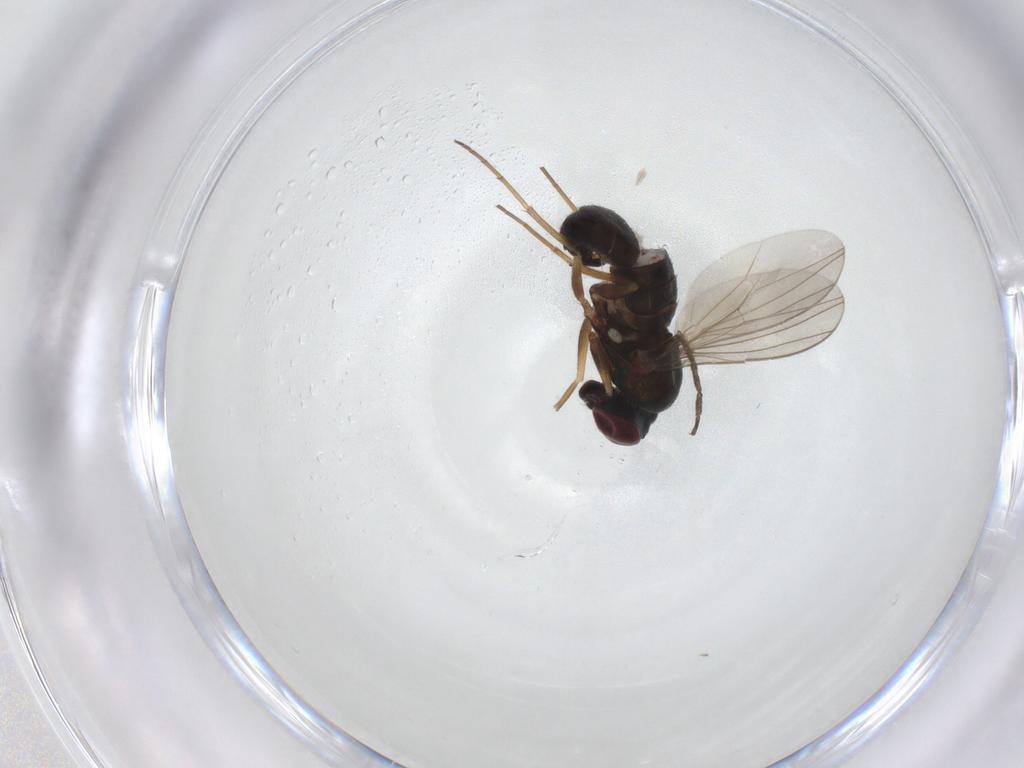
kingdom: Animalia
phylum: Arthropoda
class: Insecta
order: Diptera
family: Dolichopodidae
